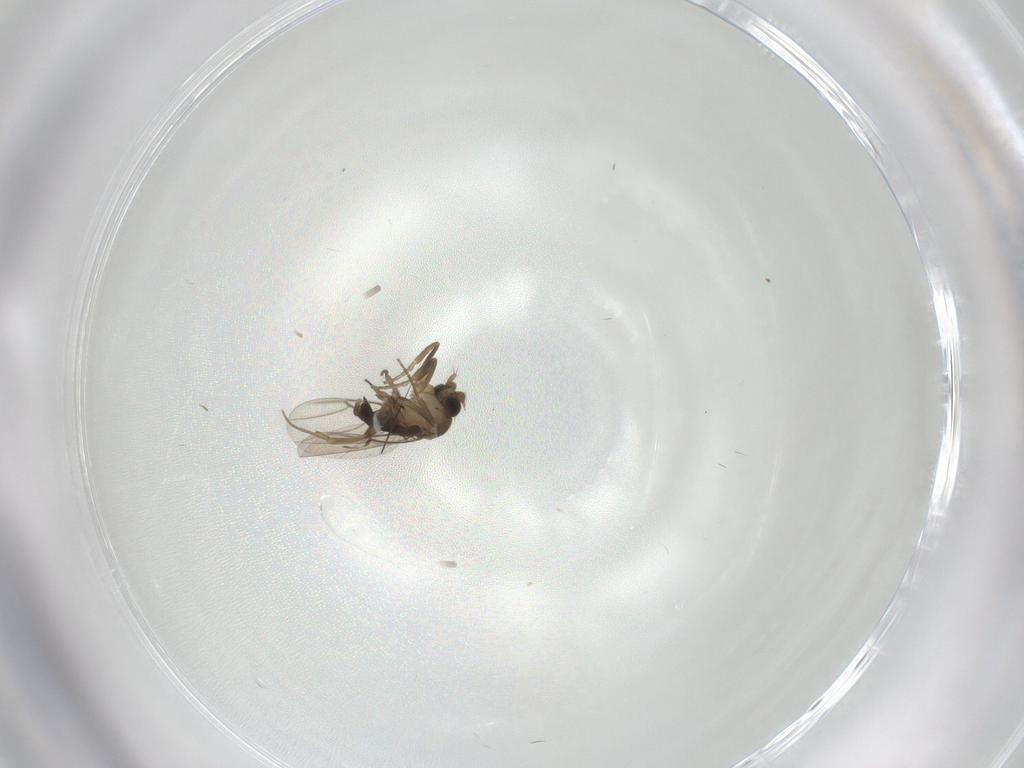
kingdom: Animalia
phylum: Arthropoda
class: Insecta
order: Diptera
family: Phoridae
